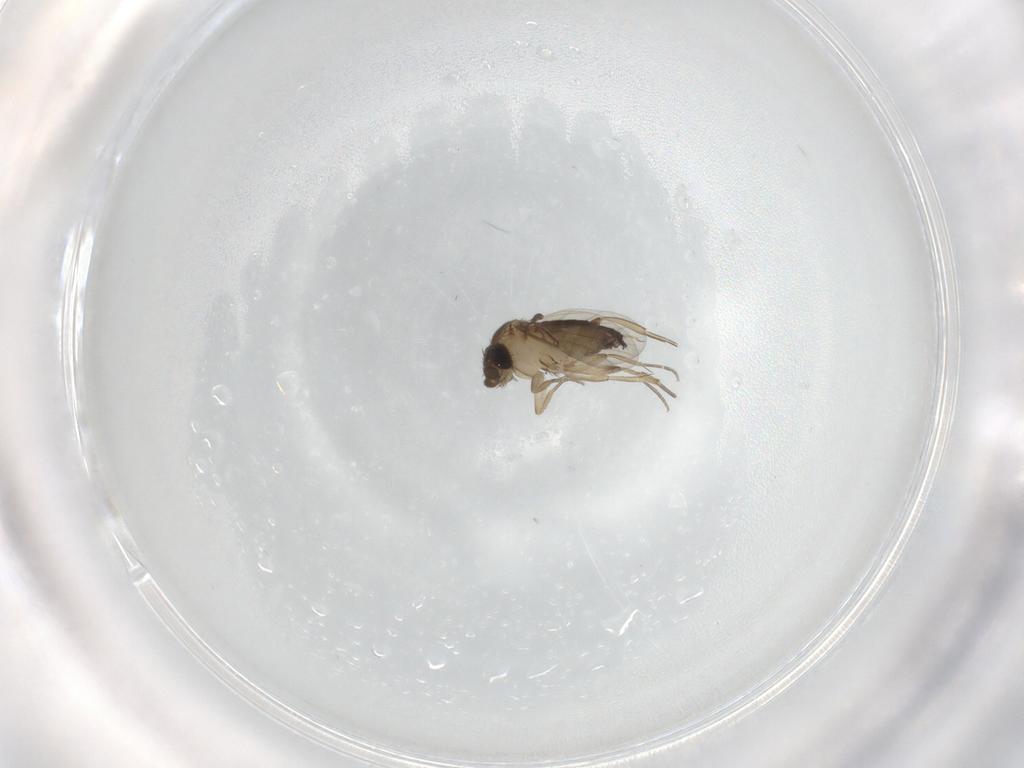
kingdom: Animalia
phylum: Arthropoda
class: Insecta
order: Diptera
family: Phoridae
